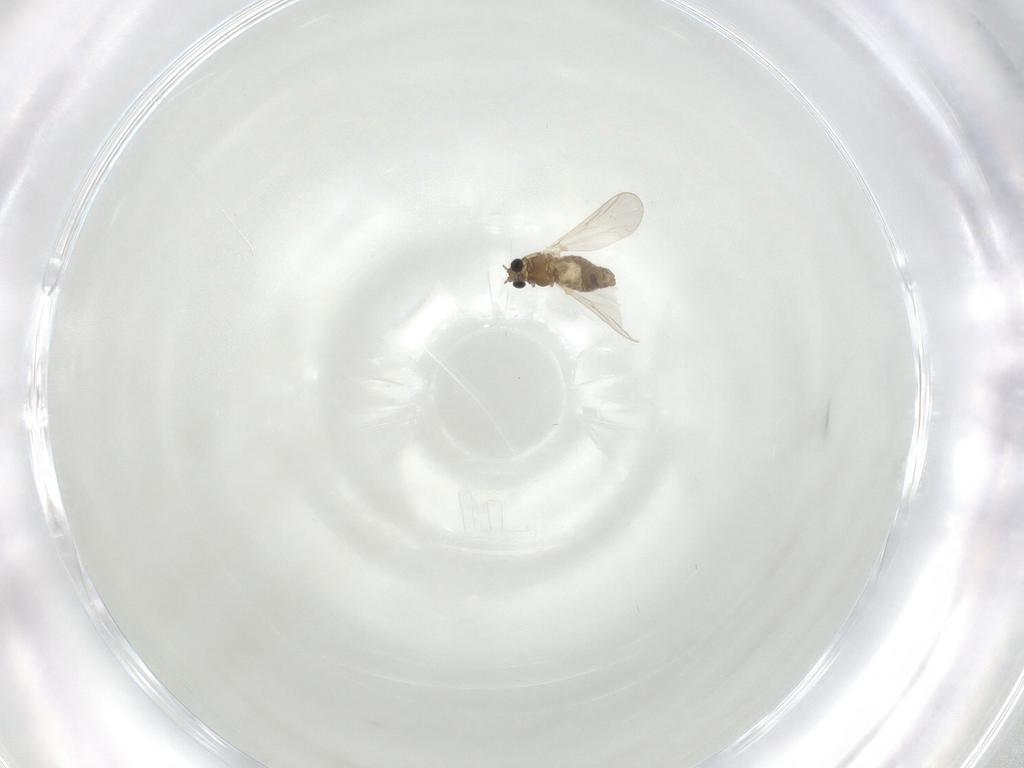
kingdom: Animalia
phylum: Arthropoda
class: Insecta
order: Diptera
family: Chironomidae
